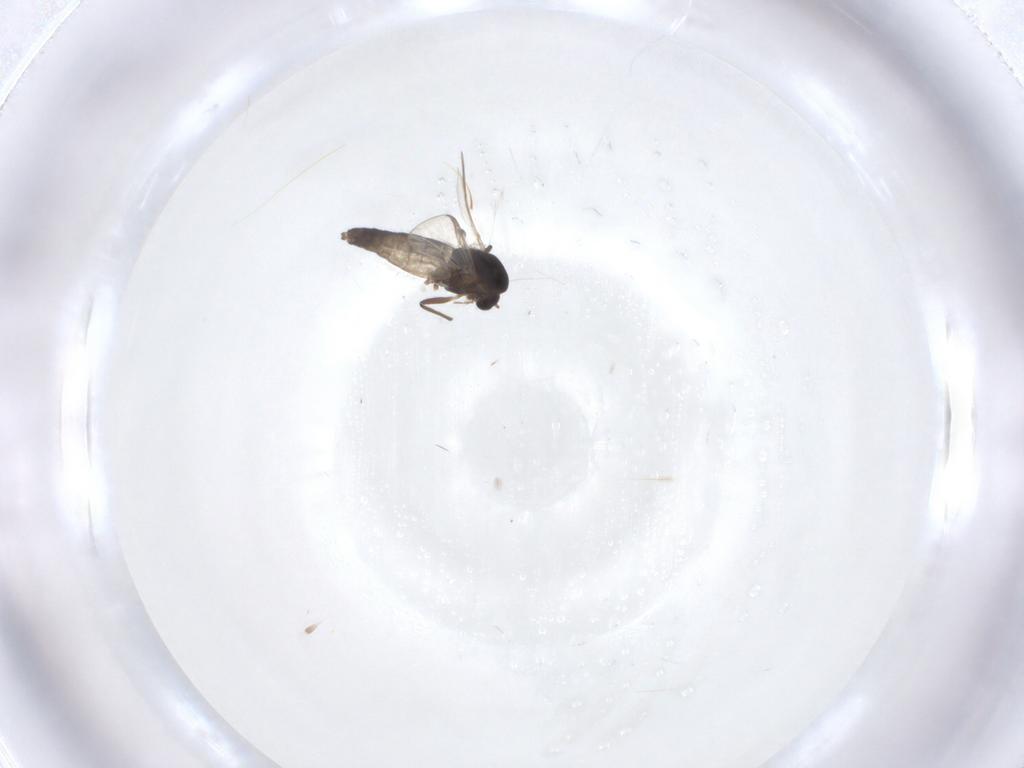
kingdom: Animalia
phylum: Arthropoda
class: Insecta
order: Diptera
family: Chironomidae
